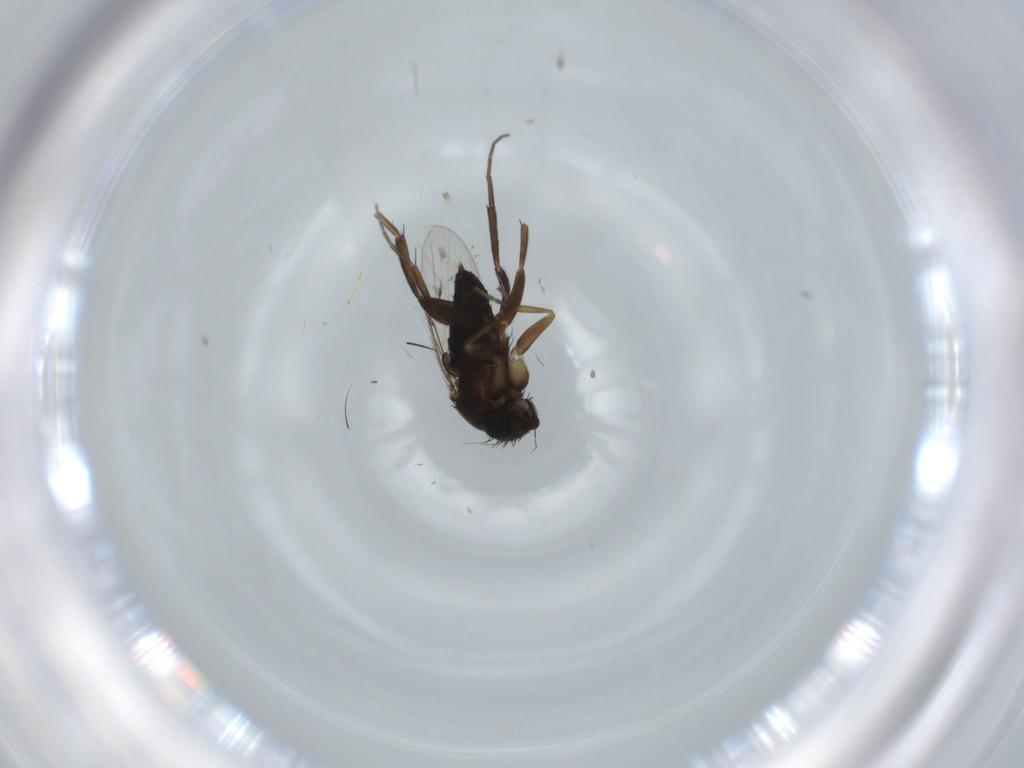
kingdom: Animalia
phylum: Arthropoda
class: Insecta
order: Diptera
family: Phoridae
